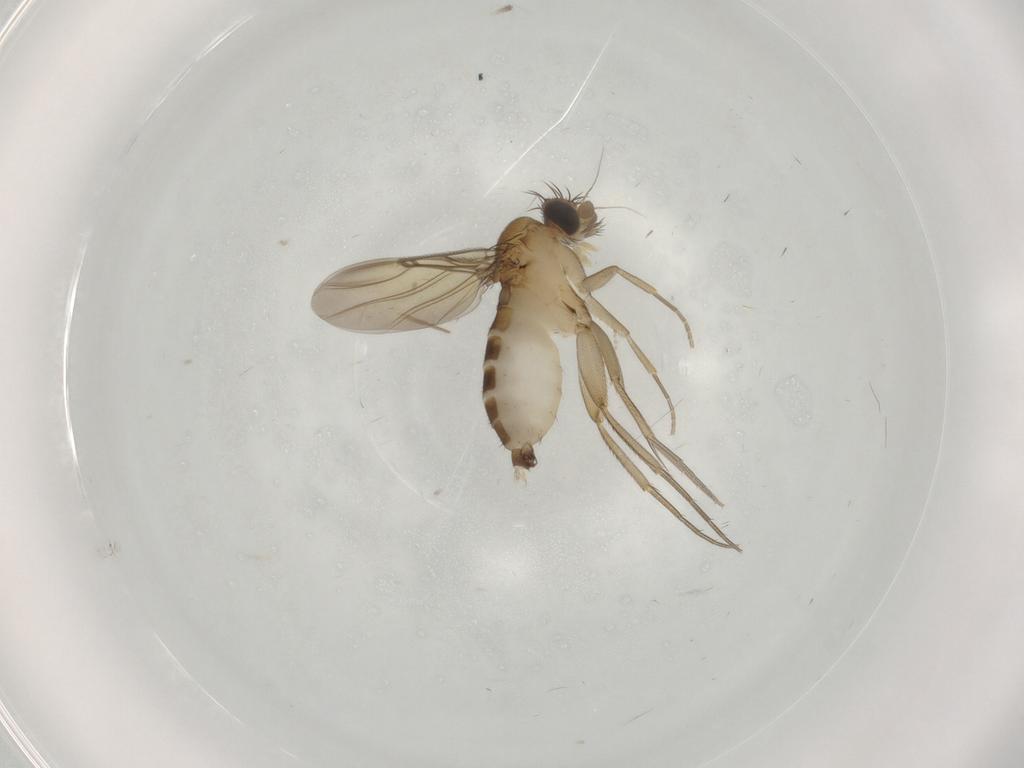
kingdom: Animalia
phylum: Arthropoda
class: Insecta
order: Diptera
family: Phoridae
